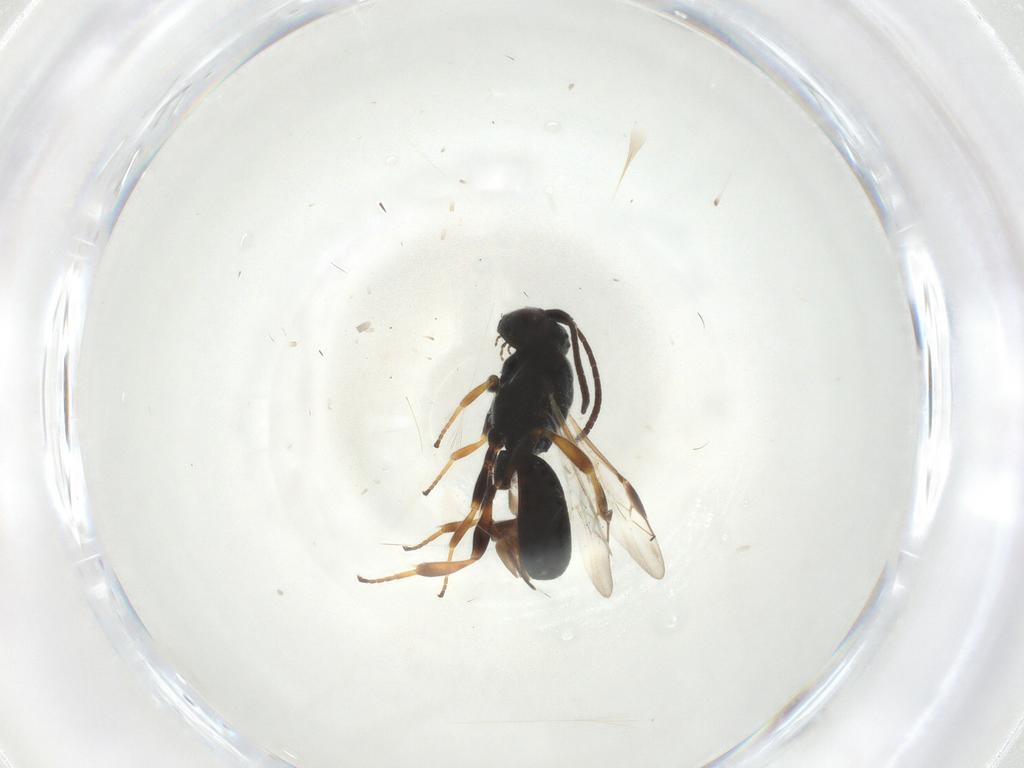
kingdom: Animalia
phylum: Arthropoda
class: Insecta
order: Hymenoptera
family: Braconidae
